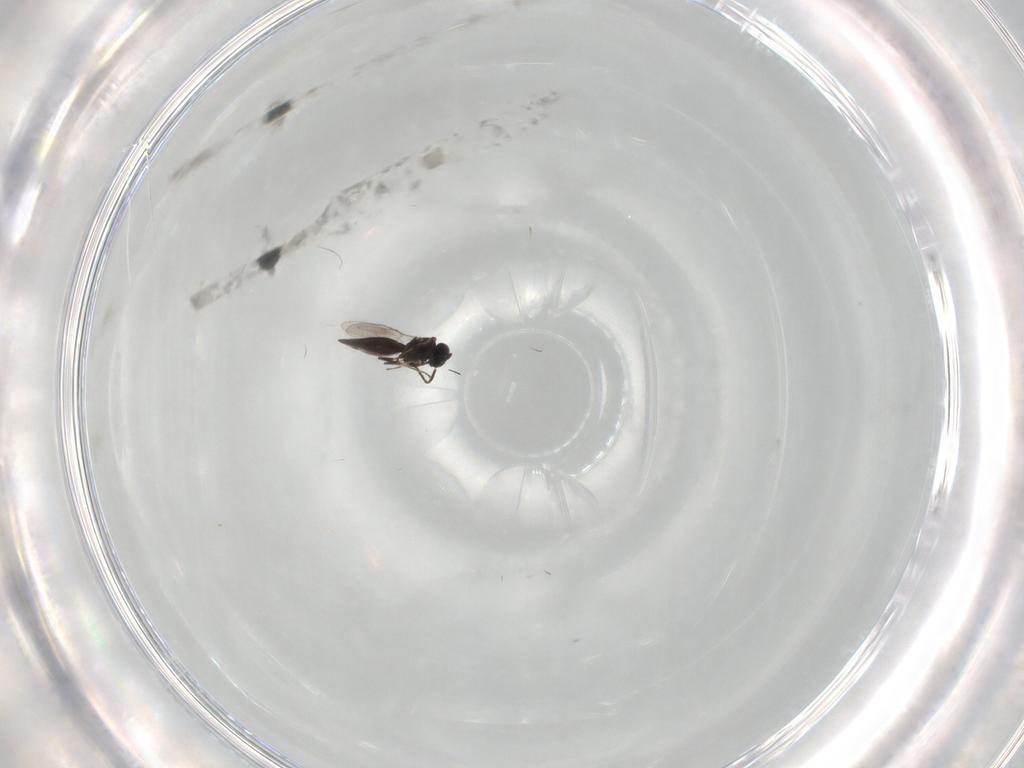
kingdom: Animalia
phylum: Arthropoda
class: Insecta
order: Hymenoptera
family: Scelionidae
